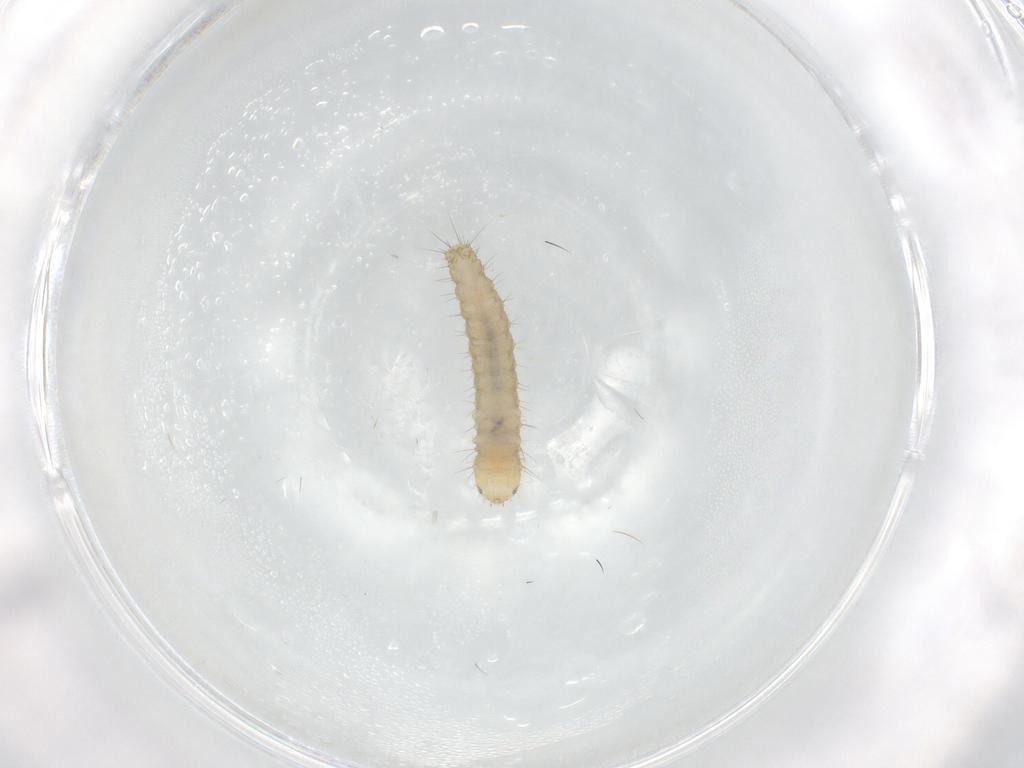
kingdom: Animalia
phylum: Arthropoda
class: Insecta
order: Lepidoptera
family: Gelechiidae
